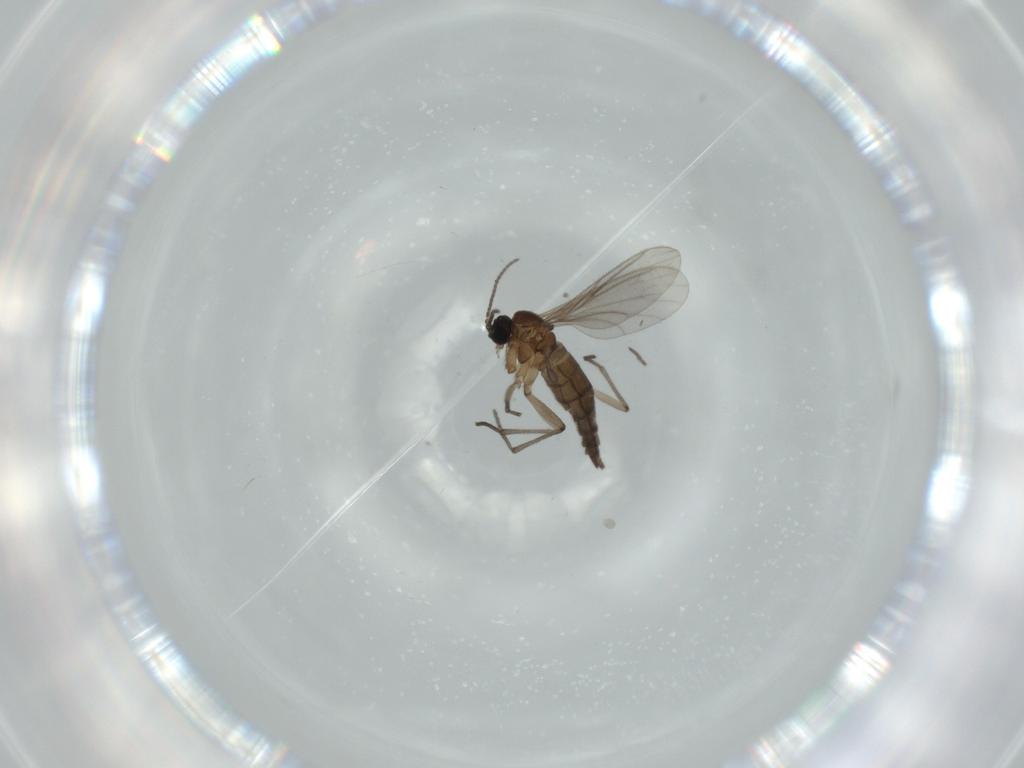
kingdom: Animalia
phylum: Arthropoda
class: Insecta
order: Diptera
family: Sciaridae
